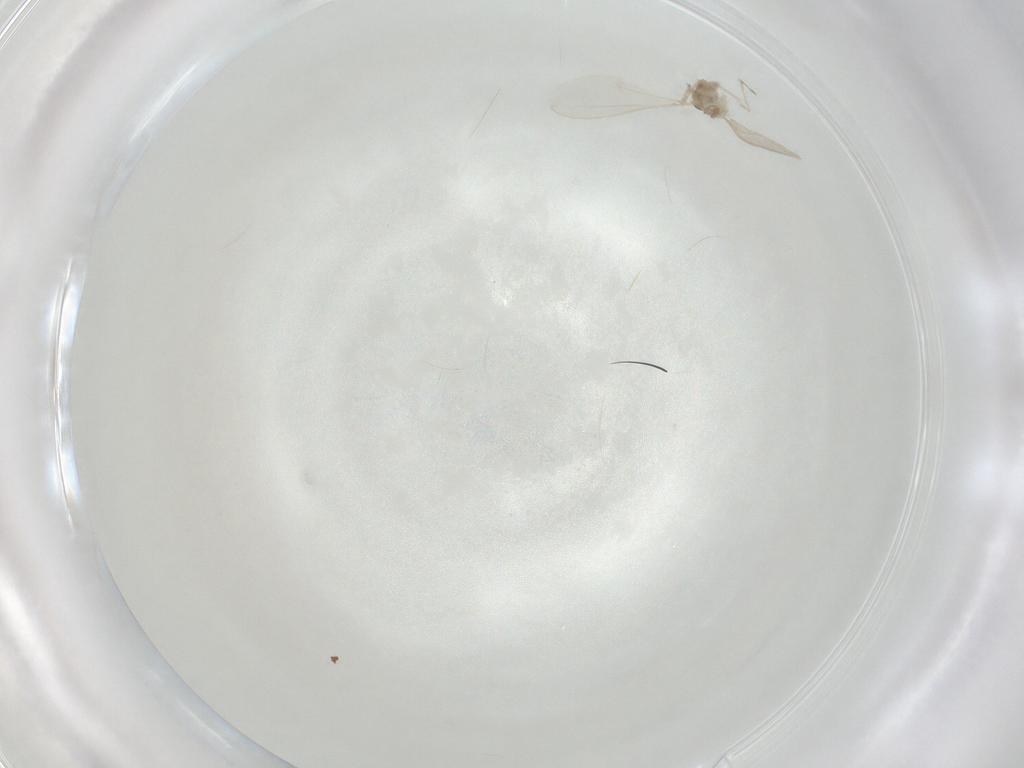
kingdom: Animalia
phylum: Arthropoda
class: Insecta
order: Diptera
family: Cecidomyiidae
